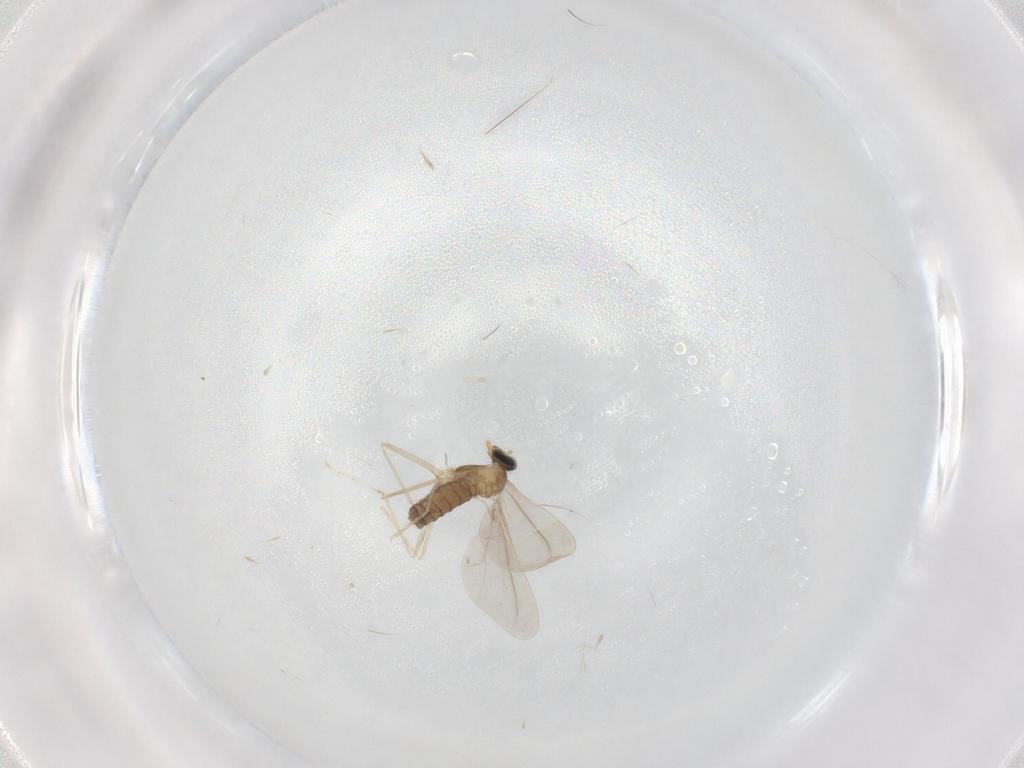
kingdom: Animalia
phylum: Arthropoda
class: Insecta
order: Diptera
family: Cecidomyiidae
